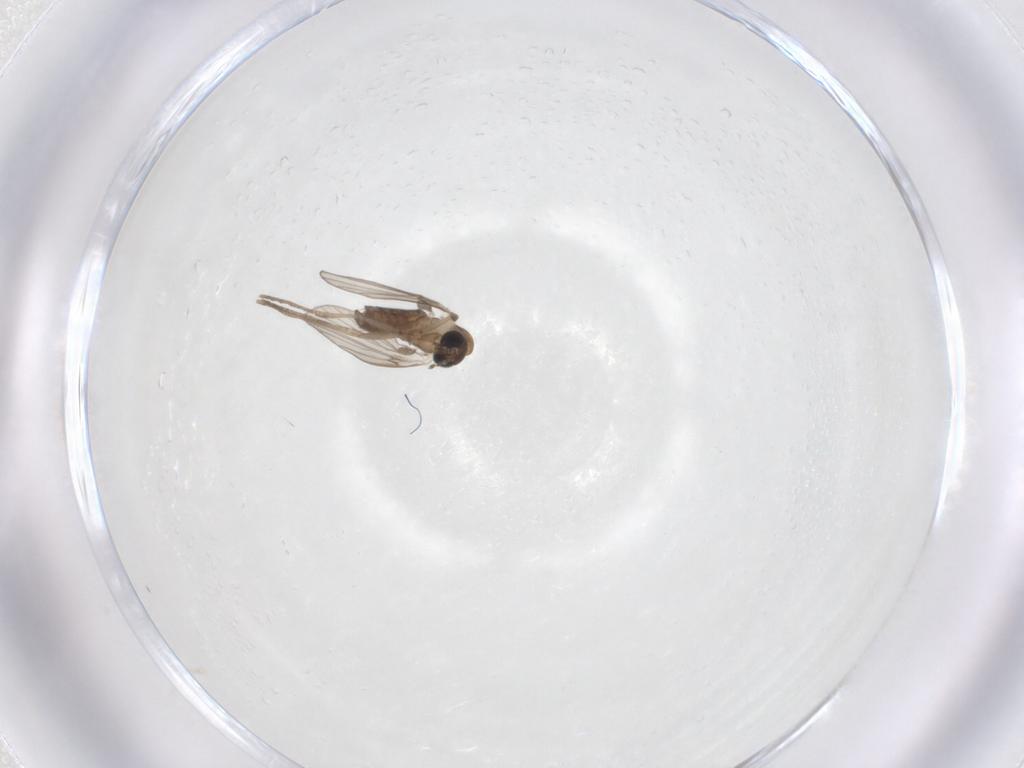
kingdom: Animalia
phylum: Arthropoda
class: Insecta
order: Diptera
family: Psychodidae
